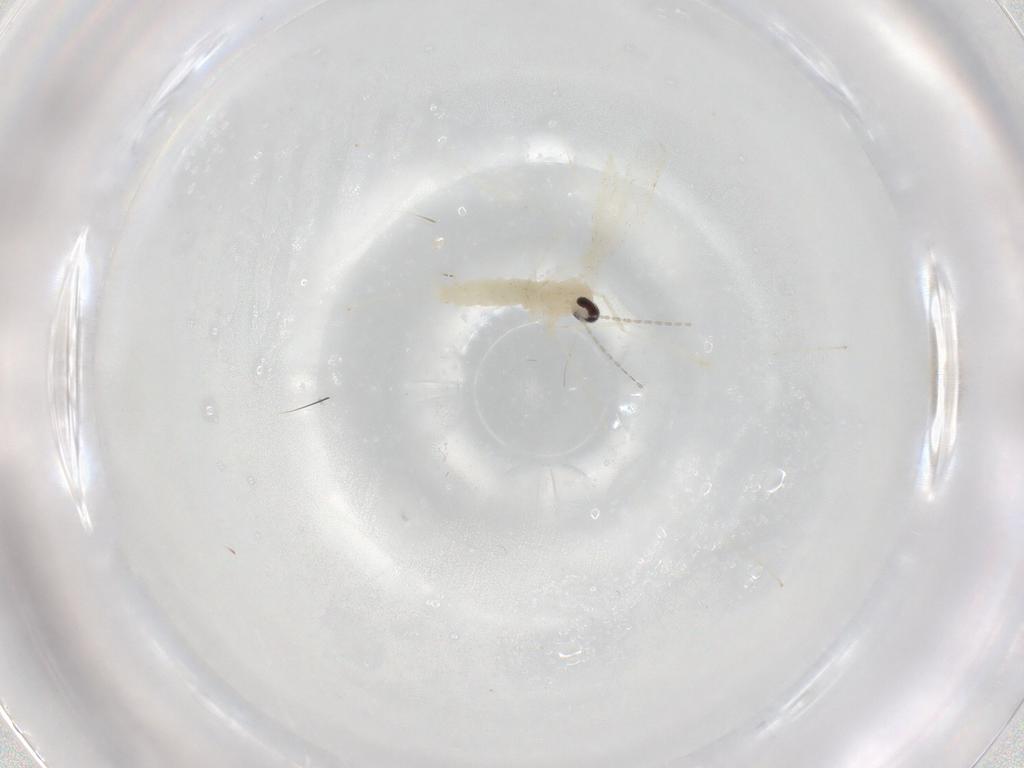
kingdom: Animalia
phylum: Arthropoda
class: Insecta
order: Diptera
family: Cecidomyiidae
